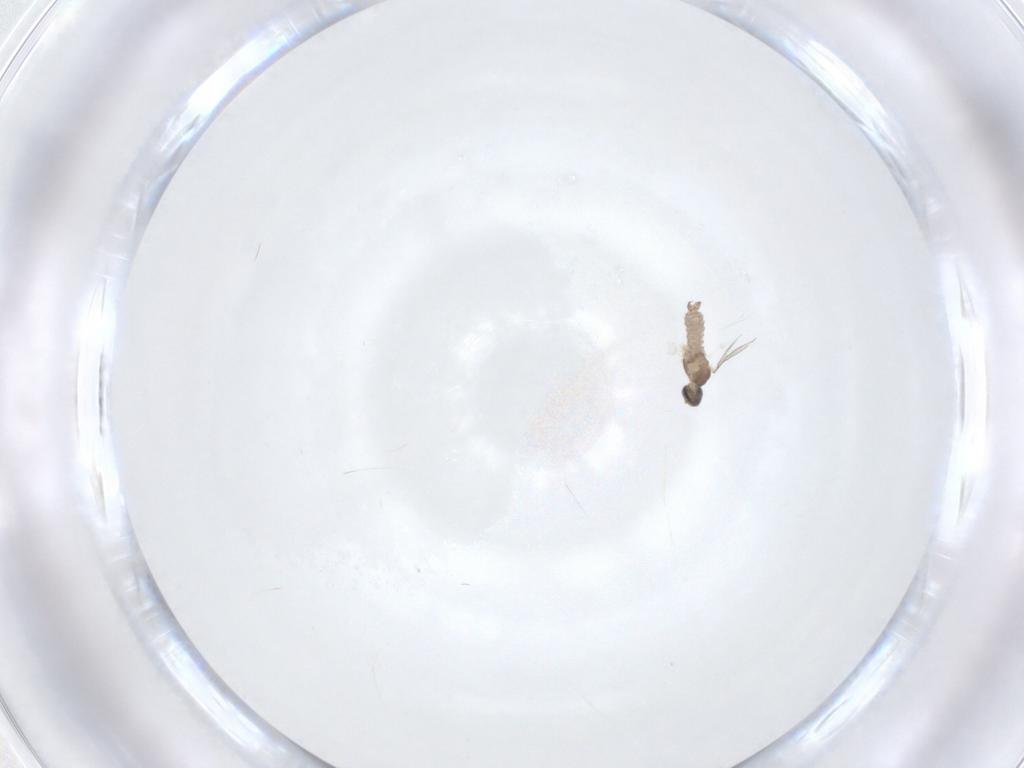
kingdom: Animalia
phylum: Arthropoda
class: Insecta
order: Diptera
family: Cecidomyiidae
